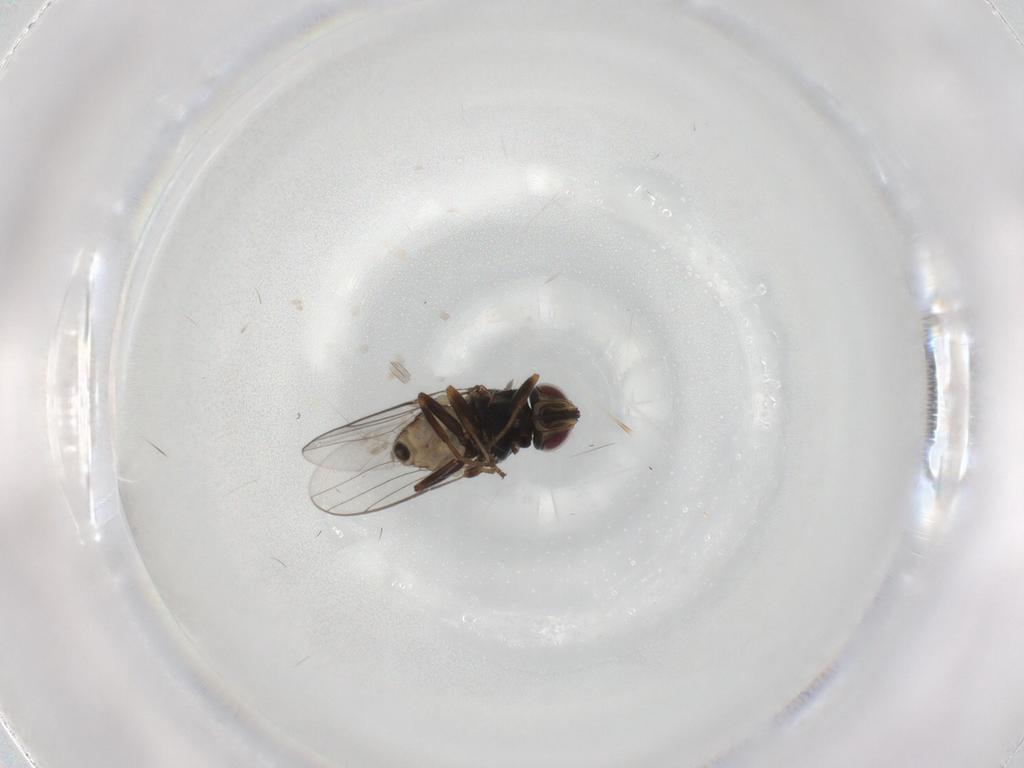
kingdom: Animalia
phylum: Arthropoda
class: Insecta
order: Diptera
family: Chloropidae
